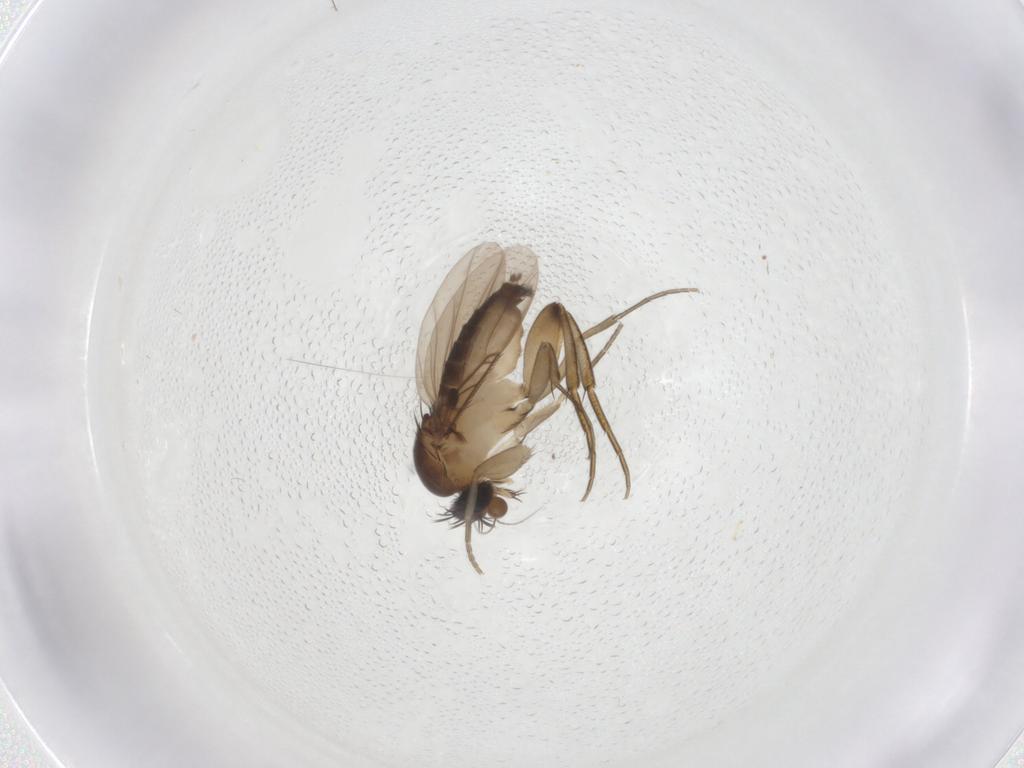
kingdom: Animalia
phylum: Arthropoda
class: Insecta
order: Diptera
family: Phoridae
